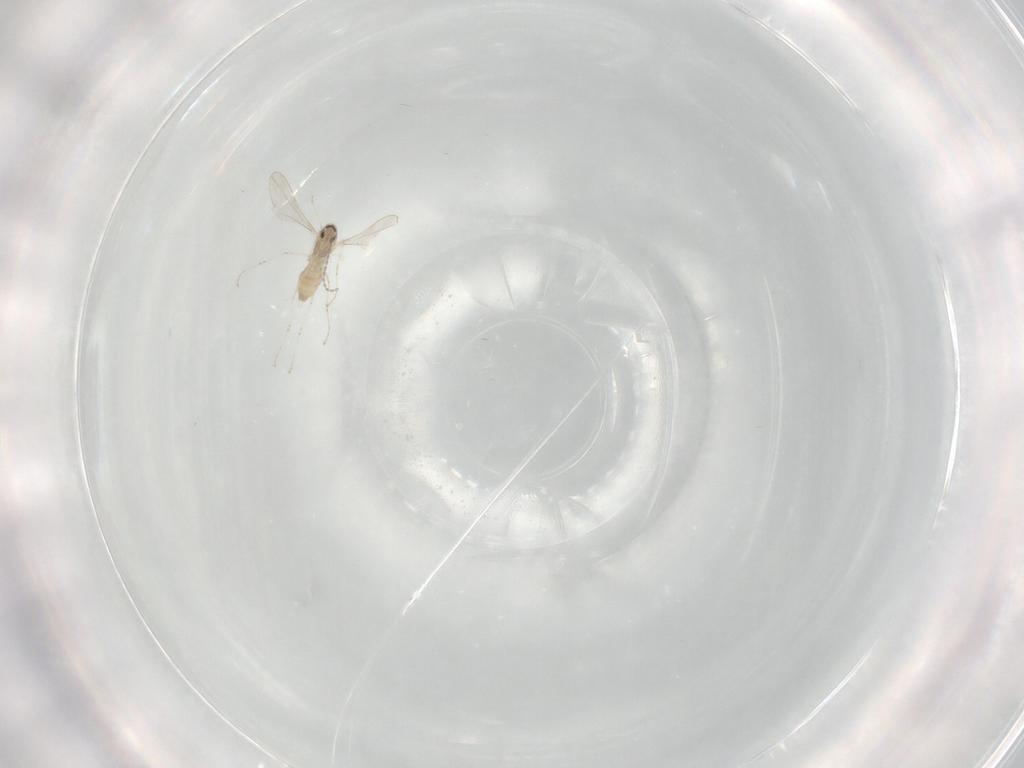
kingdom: Animalia
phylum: Arthropoda
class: Insecta
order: Diptera
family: Cecidomyiidae
